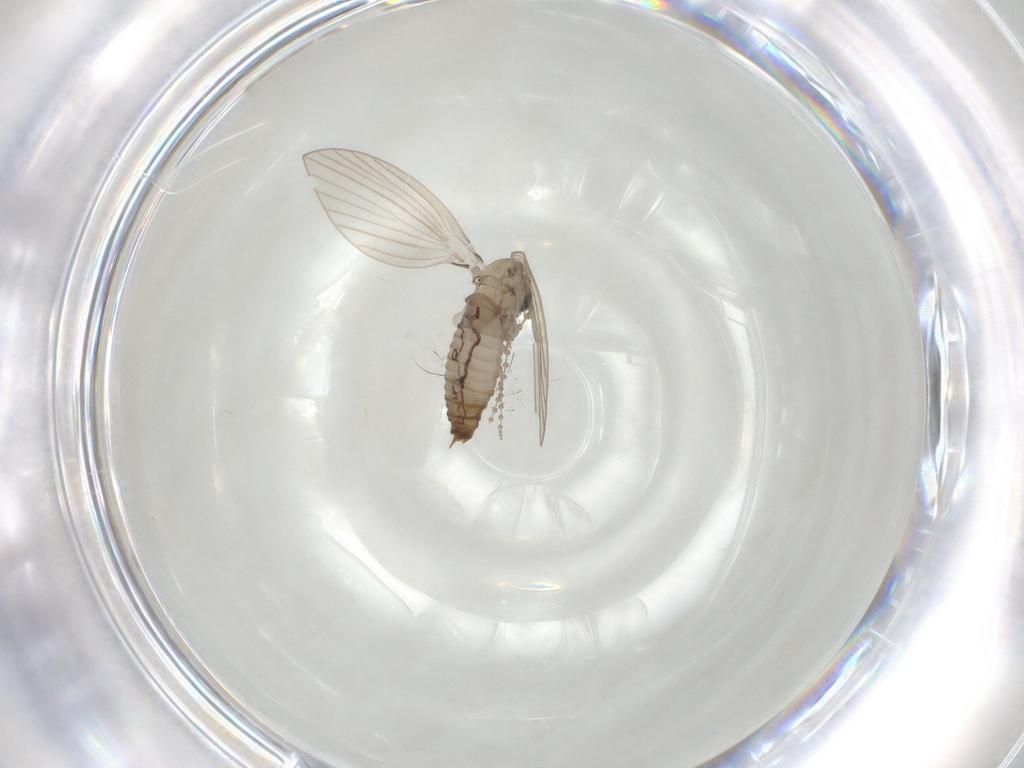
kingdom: Animalia
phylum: Arthropoda
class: Insecta
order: Diptera
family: Psychodidae
